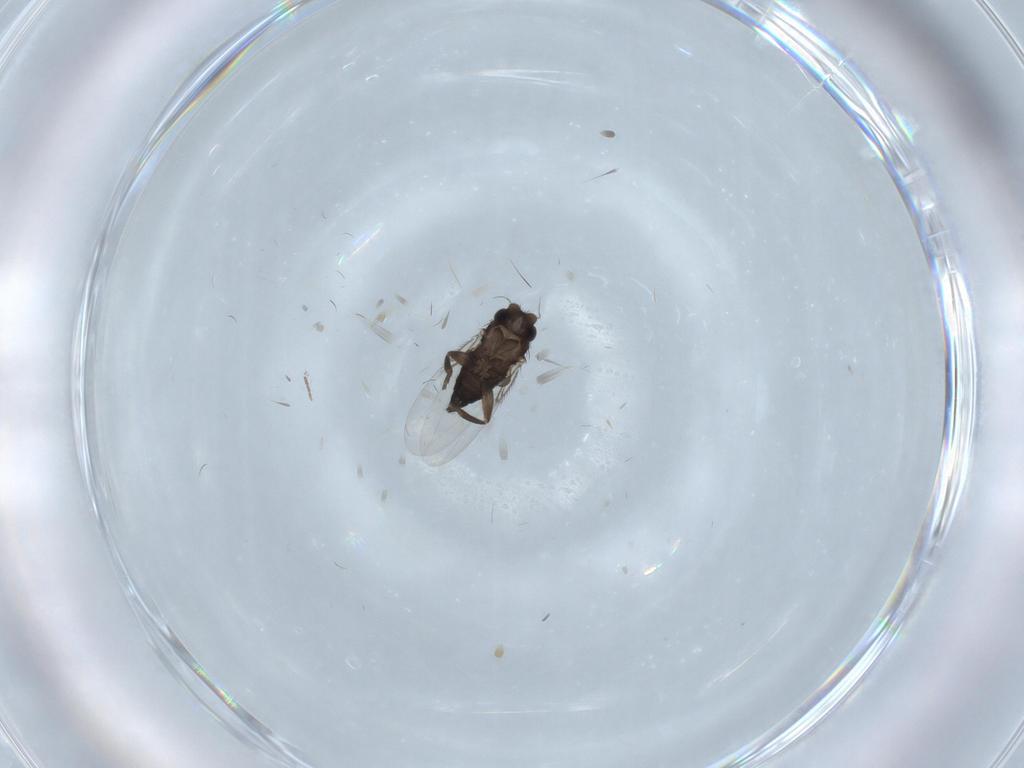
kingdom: Animalia
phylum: Arthropoda
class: Insecta
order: Diptera
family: Phoridae
